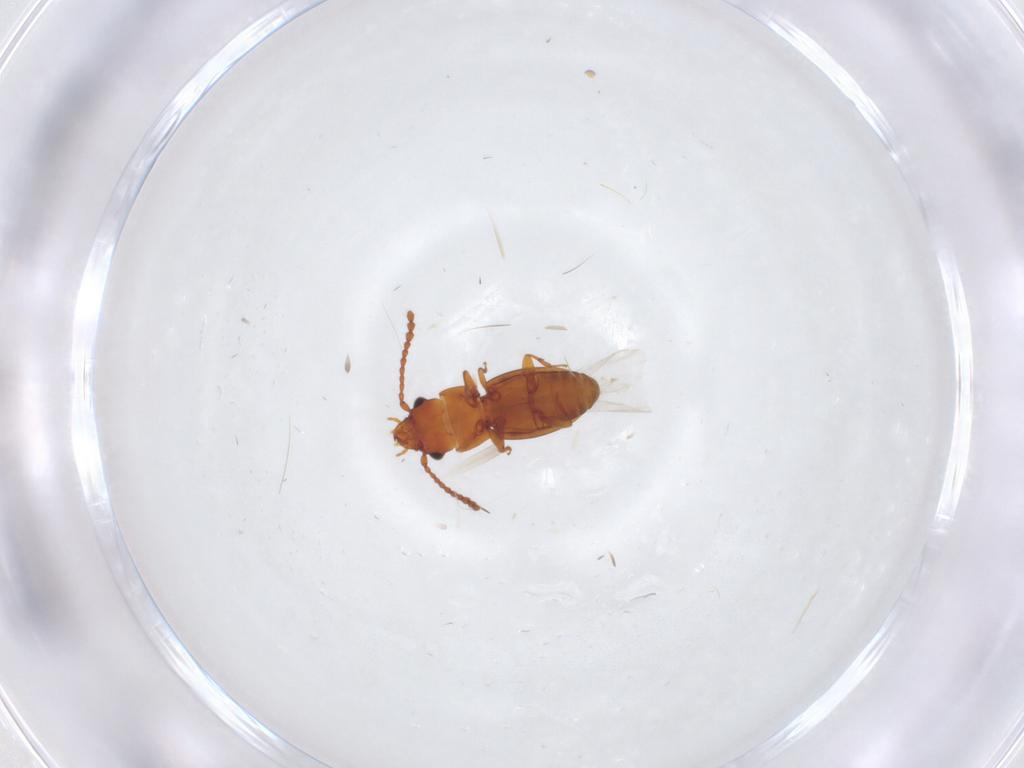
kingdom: Animalia
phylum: Arthropoda
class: Insecta
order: Coleoptera
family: Laemophloeidae
